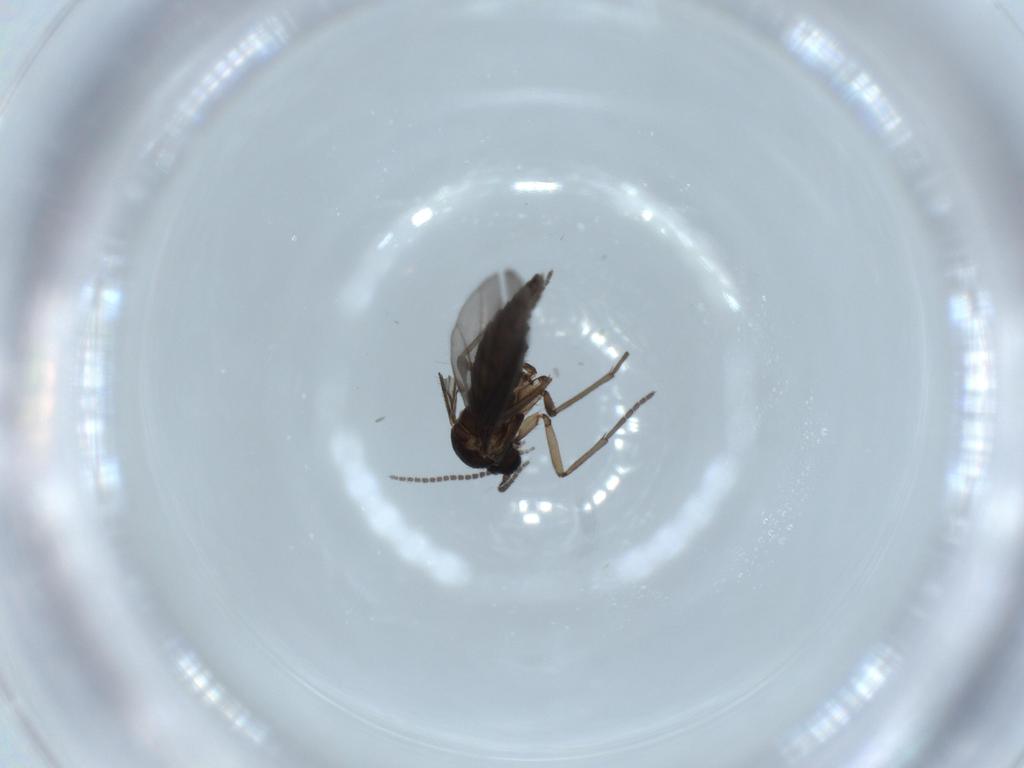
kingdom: Animalia
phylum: Arthropoda
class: Insecta
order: Diptera
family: Sciaridae
